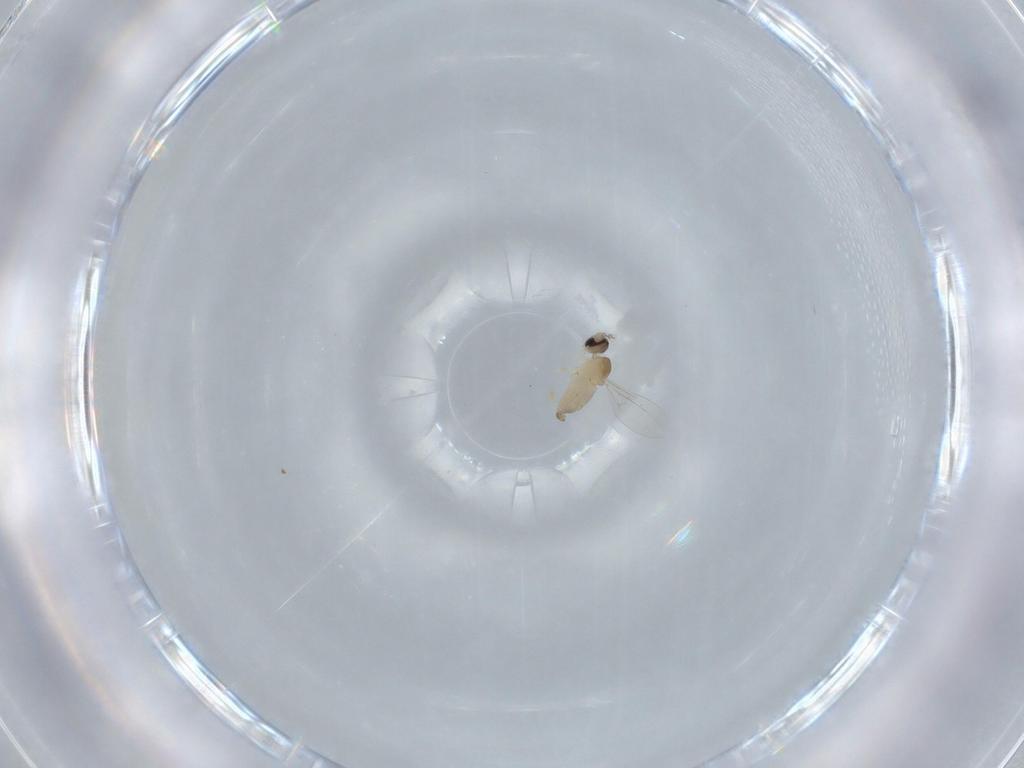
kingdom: Animalia
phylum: Arthropoda
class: Insecta
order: Diptera
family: Cecidomyiidae
